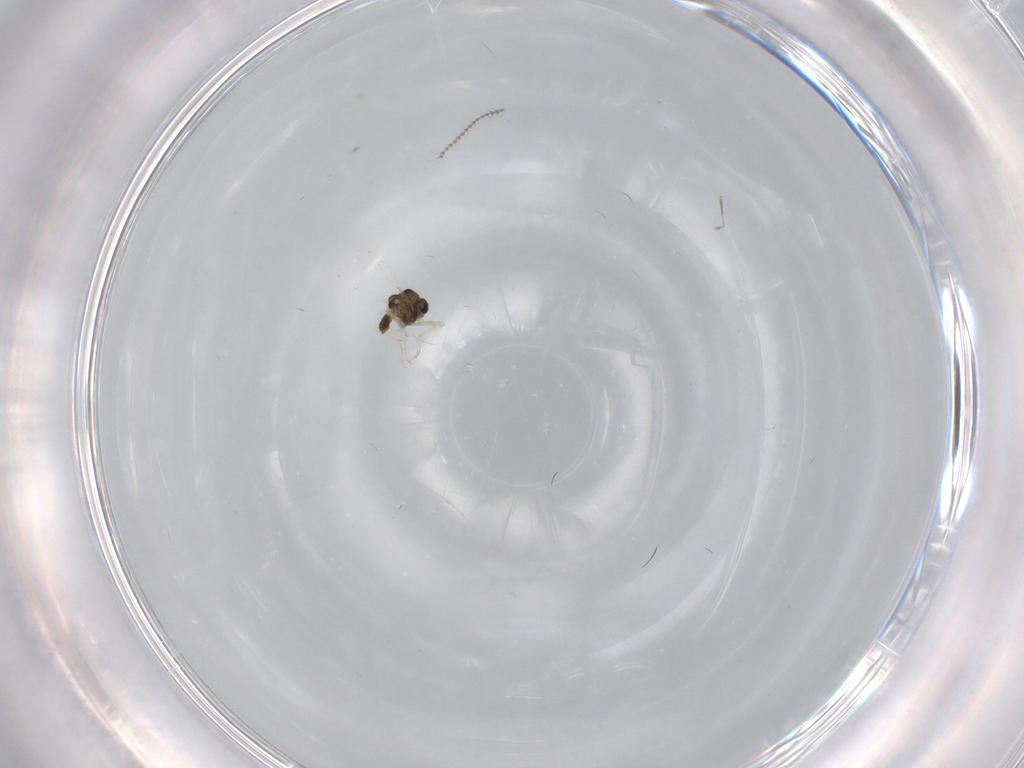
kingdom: Animalia
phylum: Arthropoda
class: Insecta
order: Diptera
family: Chironomidae
